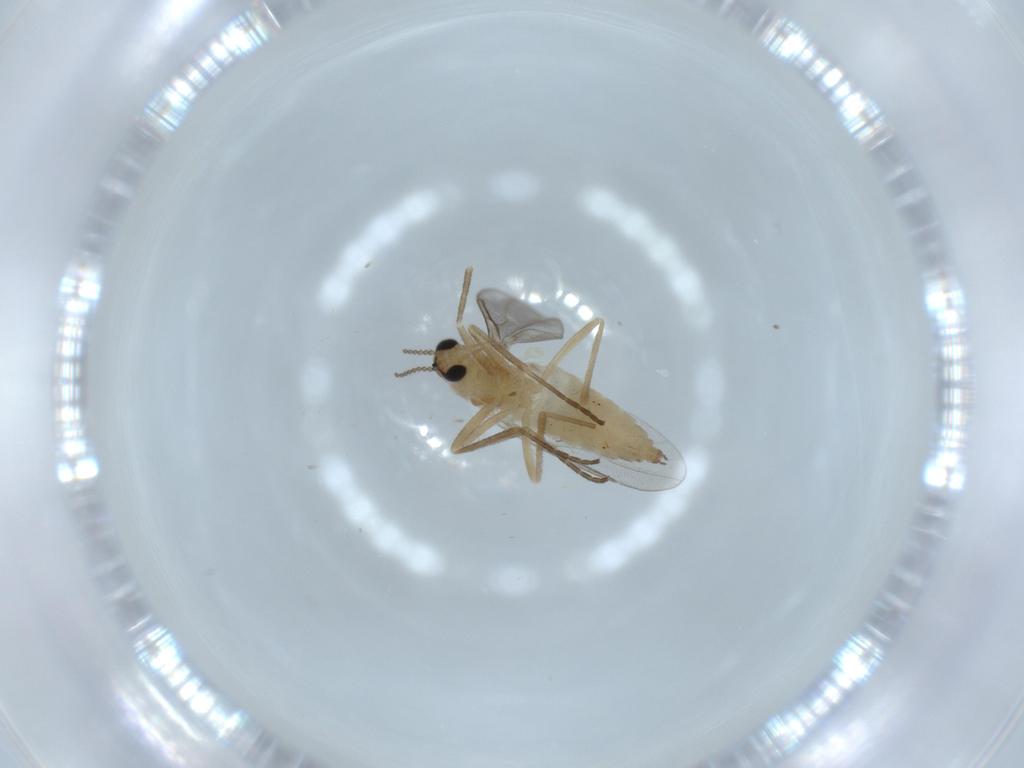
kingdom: Animalia
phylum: Arthropoda
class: Insecta
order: Diptera
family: Cecidomyiidae
